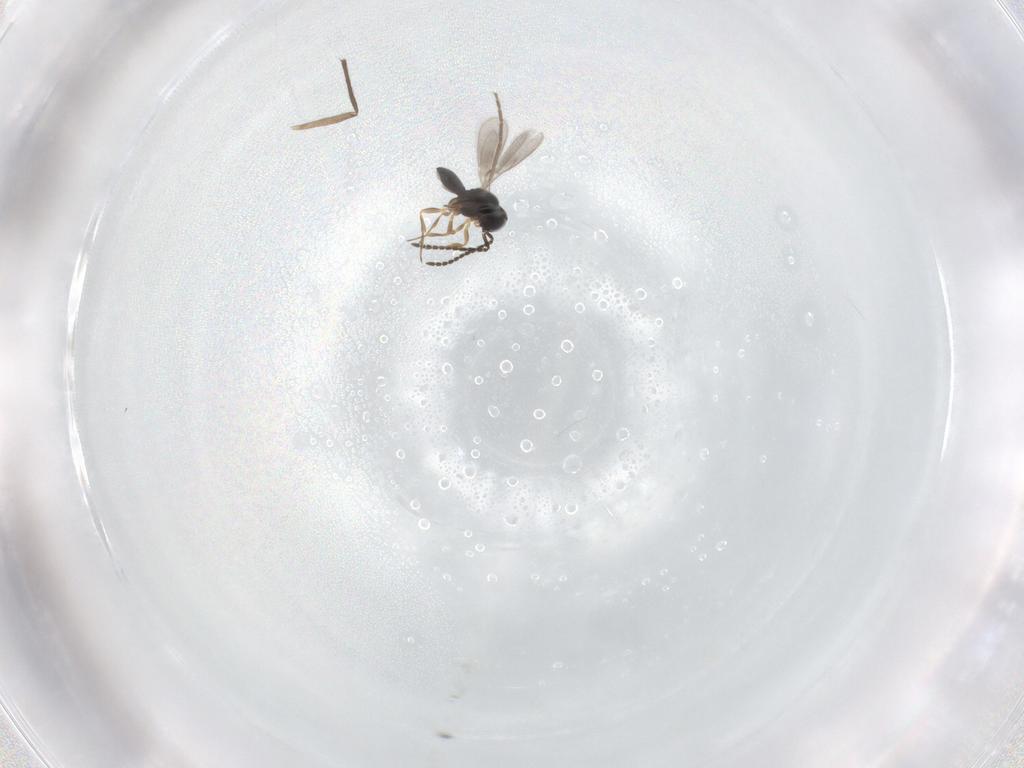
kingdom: Animalia
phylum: Arthropoda
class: Insecta
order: Hymenoptera
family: Scelionidae
